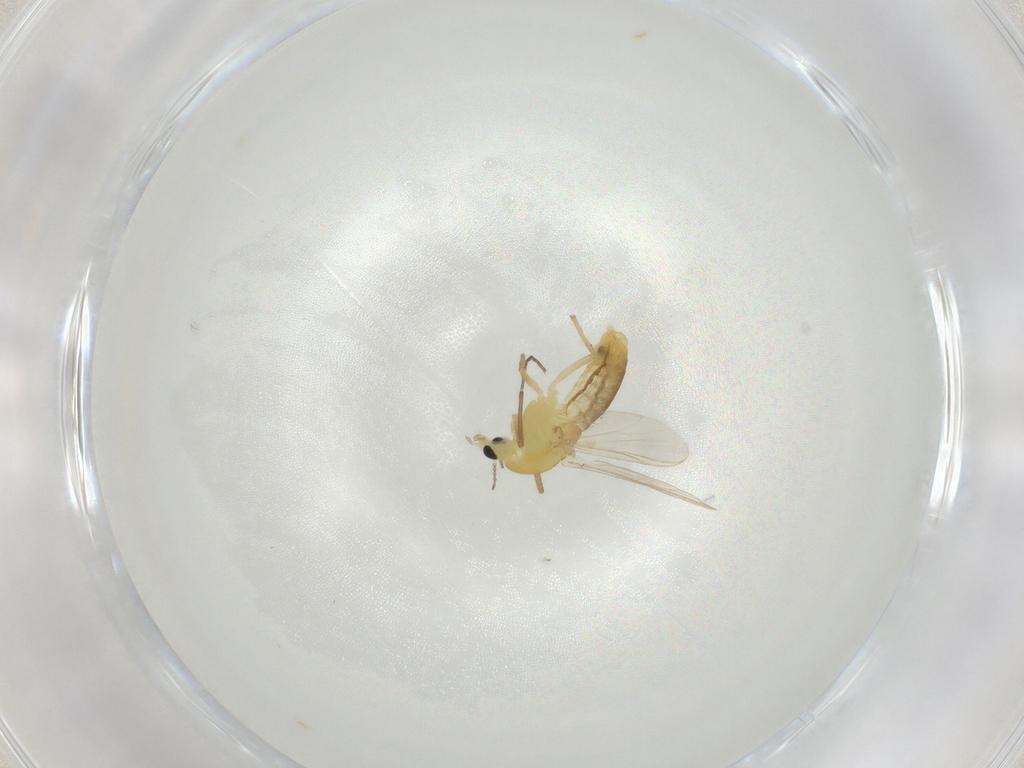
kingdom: Animalia
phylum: Arthropoda
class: Insecta
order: Diptera
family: Chironomidae
